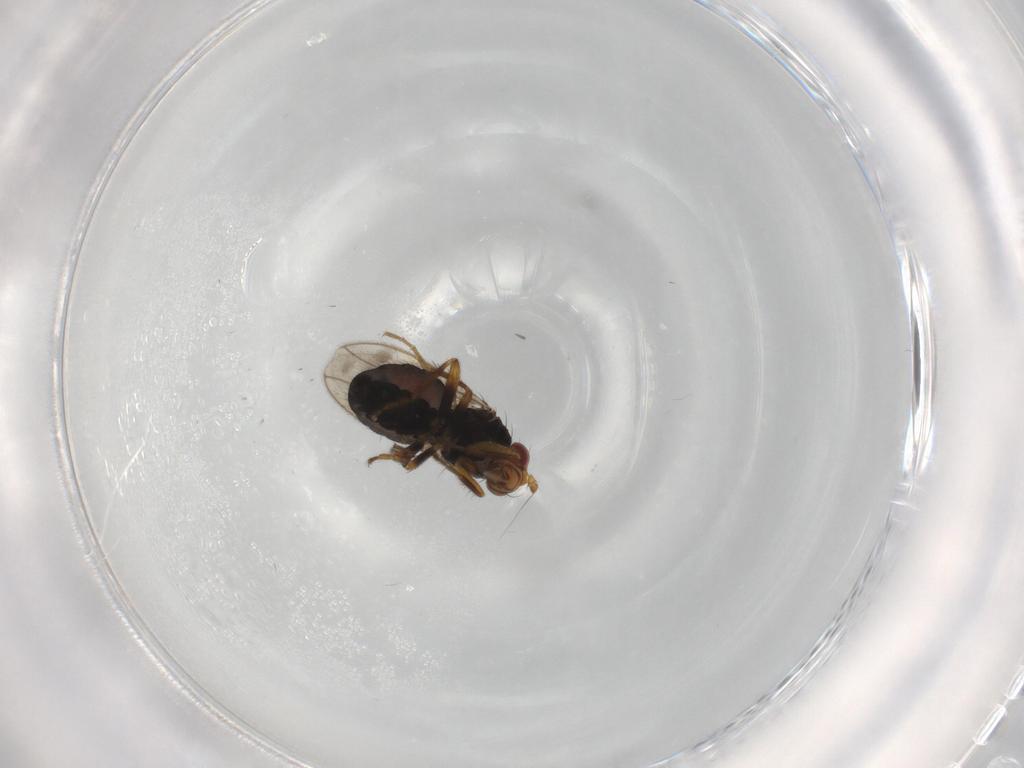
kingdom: Animalia
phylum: Arthropoda
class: Insecta
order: Diptera
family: Sphaeroceridae
